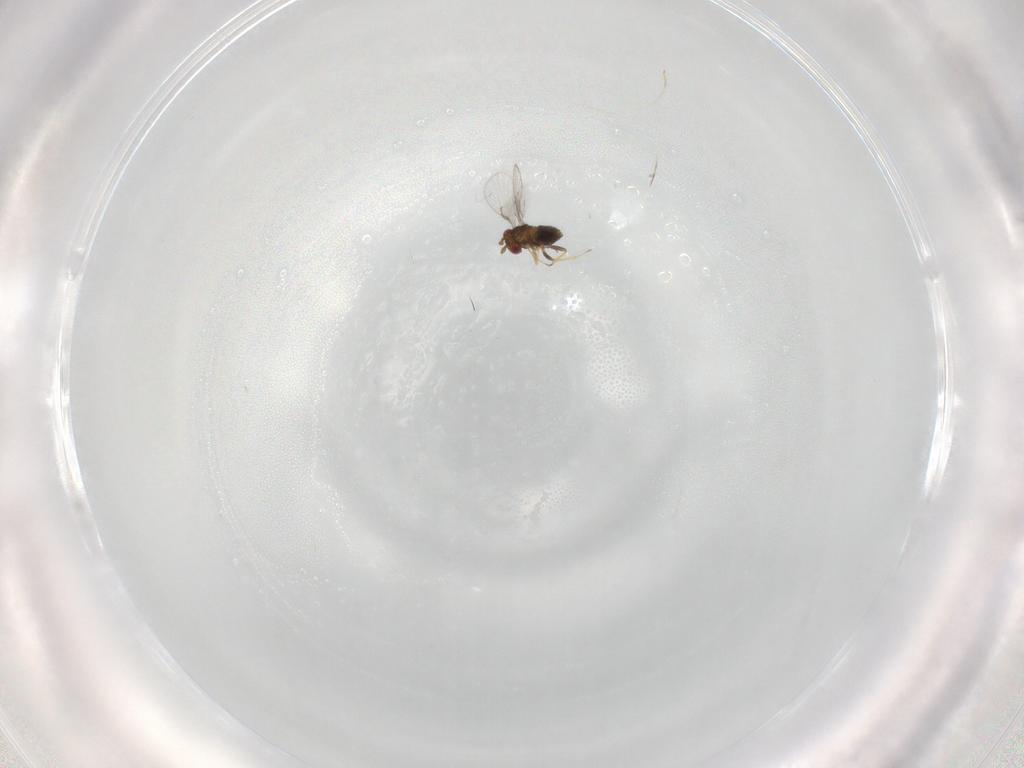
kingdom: Animalia
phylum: Arthropoda
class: Insecta
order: Hymenoptera
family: Trichogrammatidae
